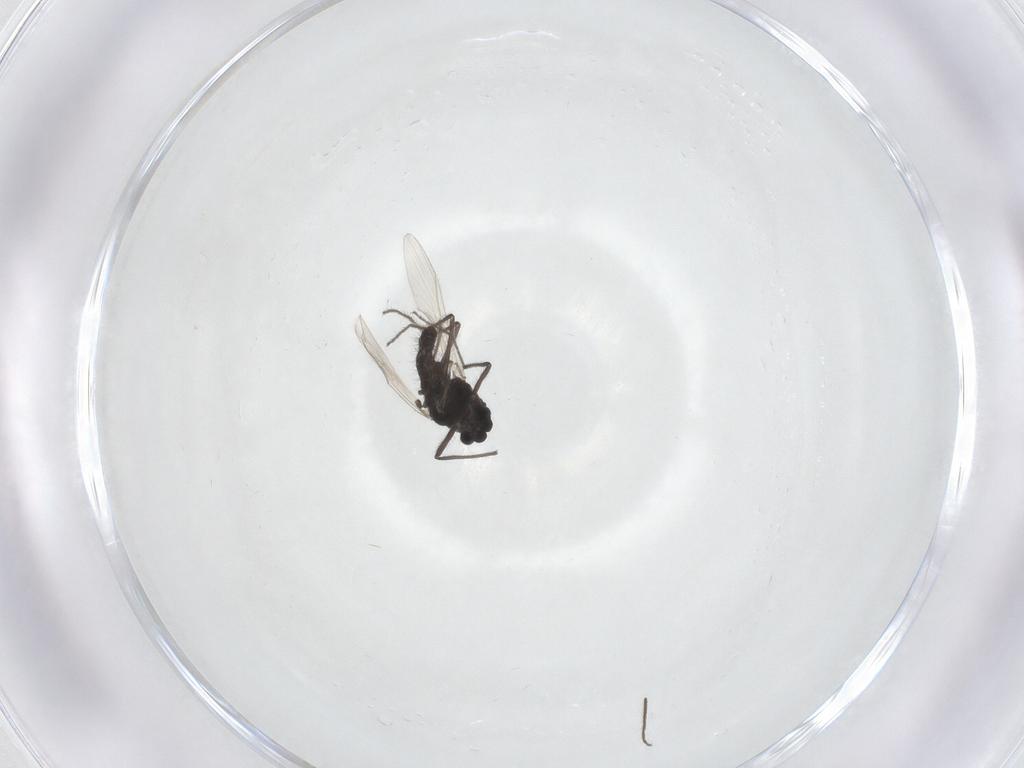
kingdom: Animalia
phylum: Arthropoda
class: Insecta
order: Diptera
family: Chironomidae
